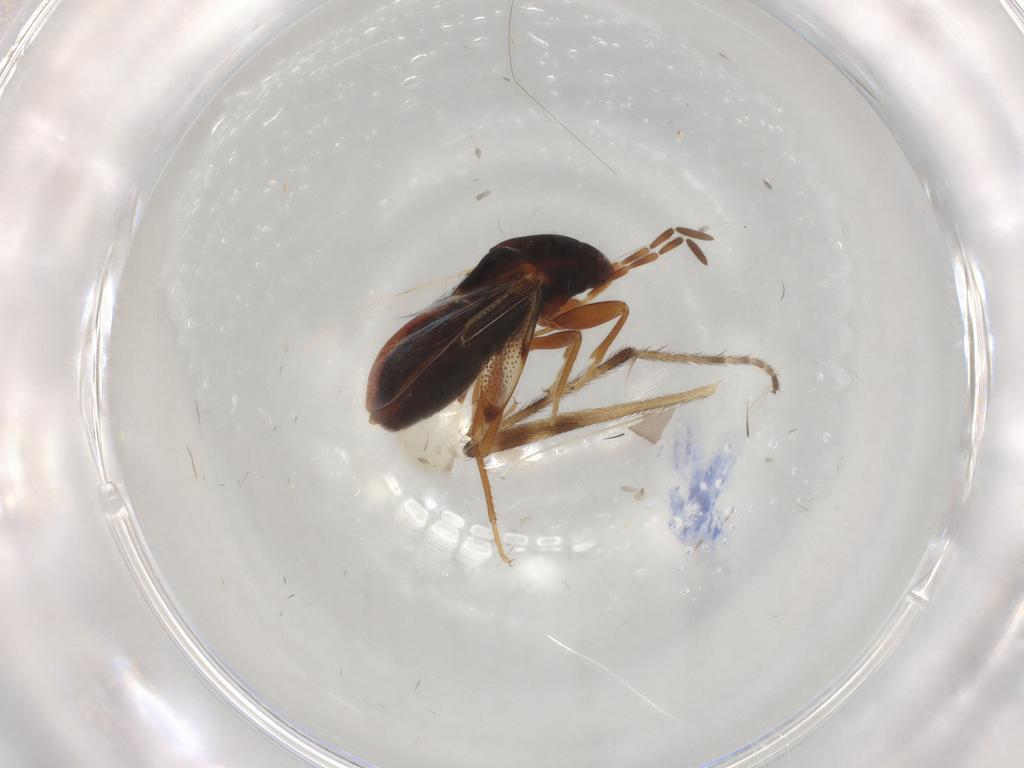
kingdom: Animalia
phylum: Arthropoda
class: Insecta
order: Hemiptera
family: Rhyparochromidae
